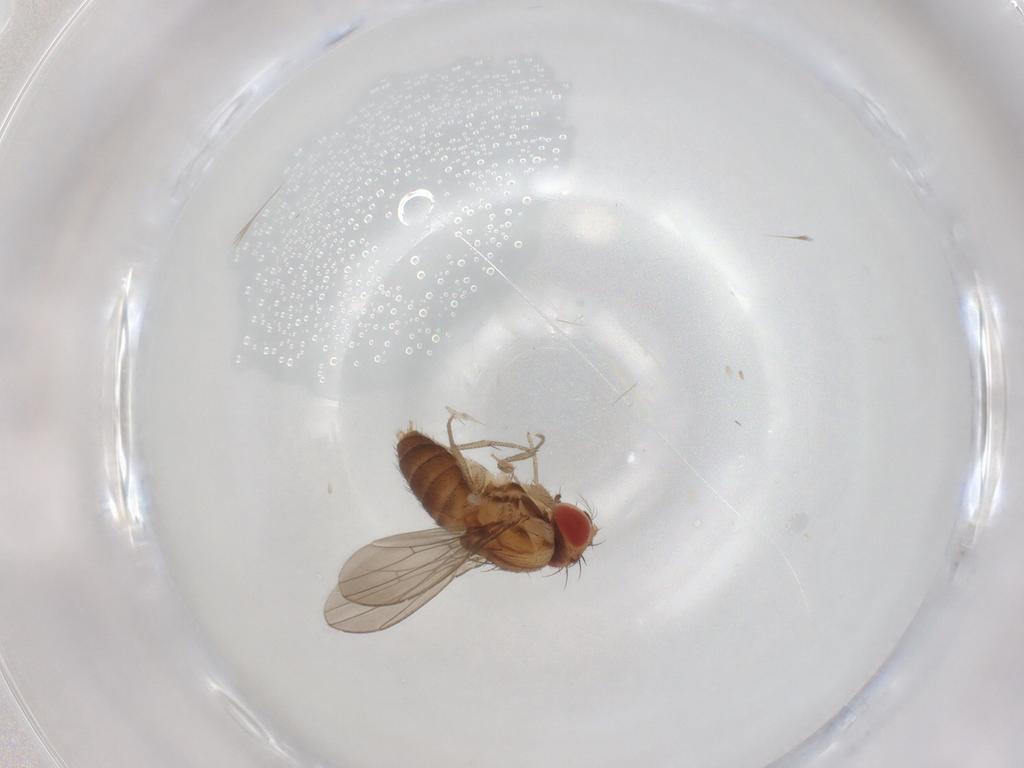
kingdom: Animalia
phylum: Arthropoda
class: Insecta
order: Diptera
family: Drosophilidae
